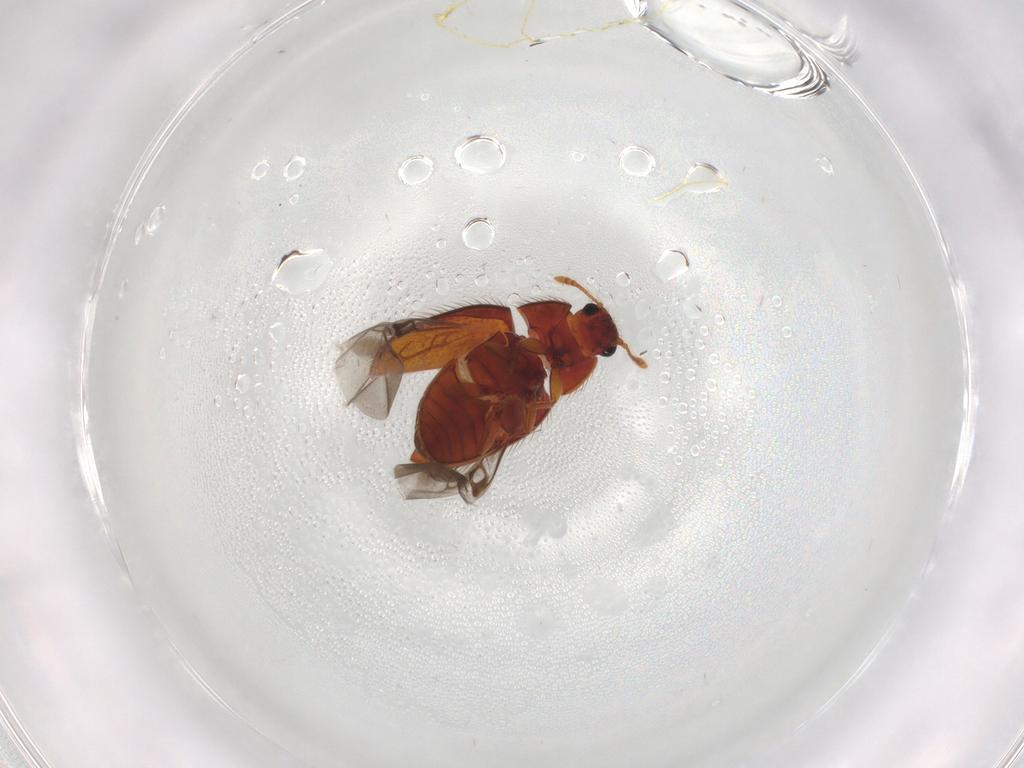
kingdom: Animalia
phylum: Arthropoda
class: Insecta
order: Coleoptera
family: Biphyllidae
